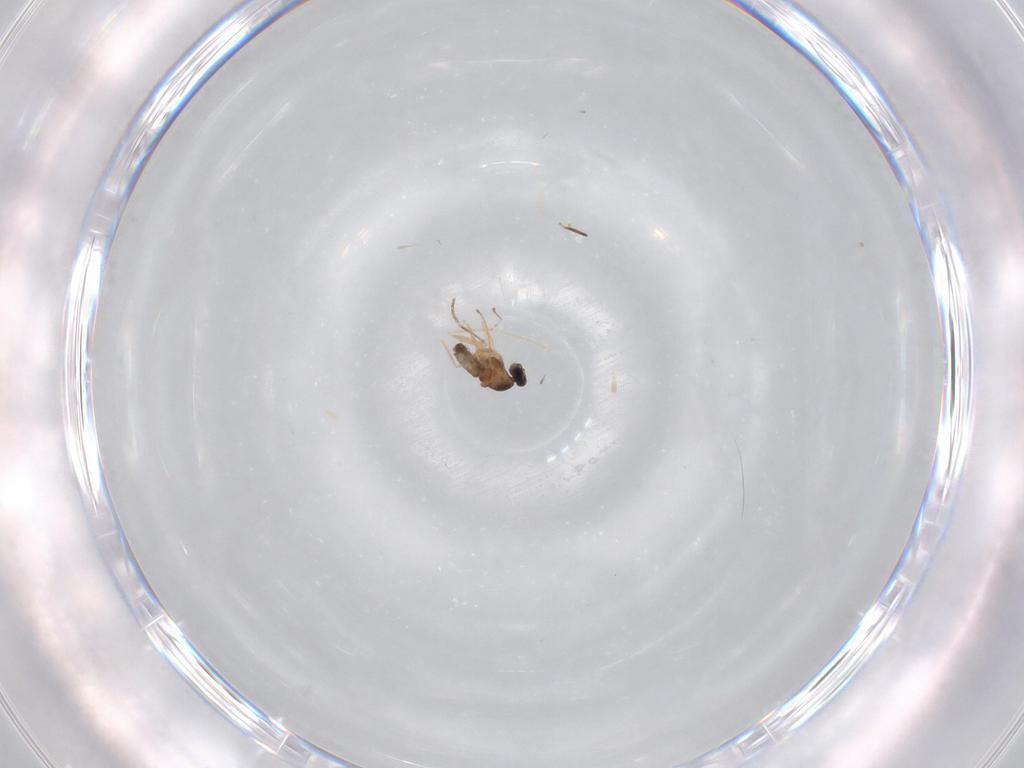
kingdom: Animalia
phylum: Arthropoda
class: Insecta
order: Diptera
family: Cecidomyiidae
